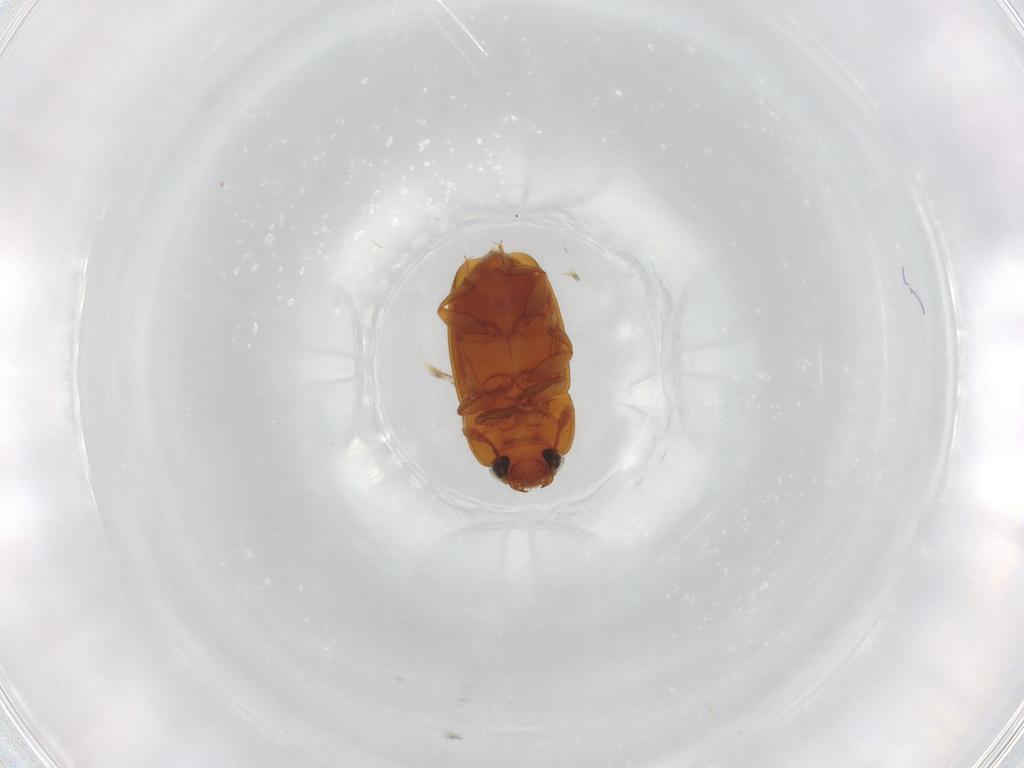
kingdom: Animalia
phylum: Arthropoda
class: Insecta
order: Coleoptera
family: Nitidulidae
